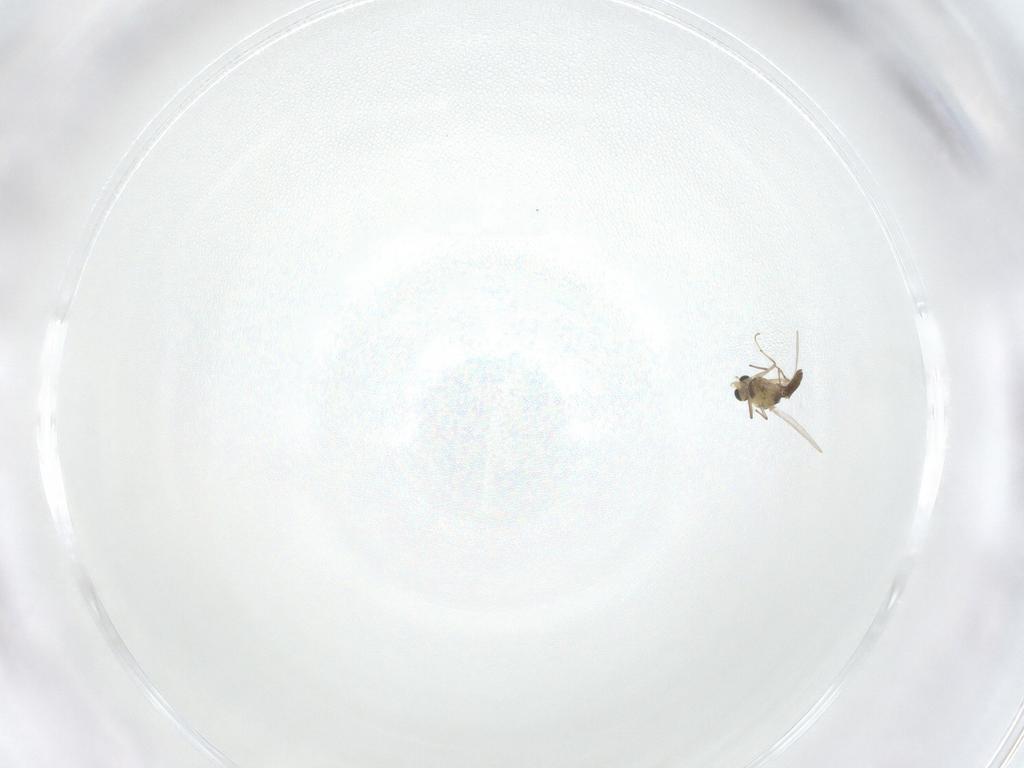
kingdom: Animalia
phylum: Arthropoda
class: Insecta
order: Diptera
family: Chironomidae
